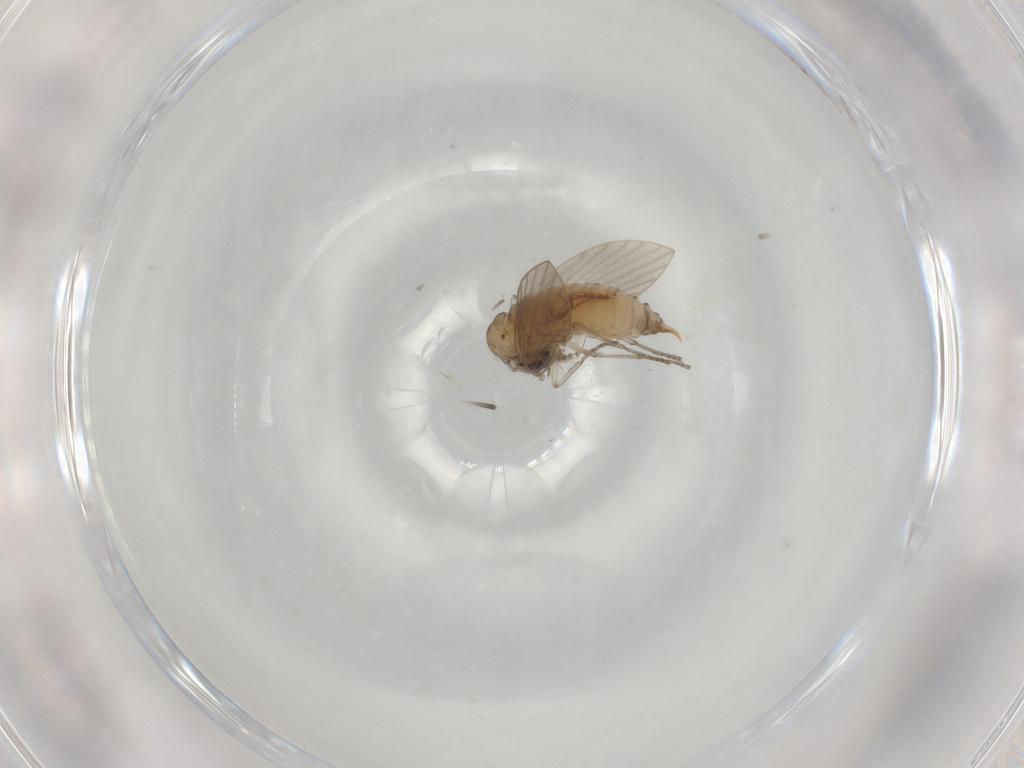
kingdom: Animalia
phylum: Arthropoda
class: Insecta
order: Diptera
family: Psychodidae
